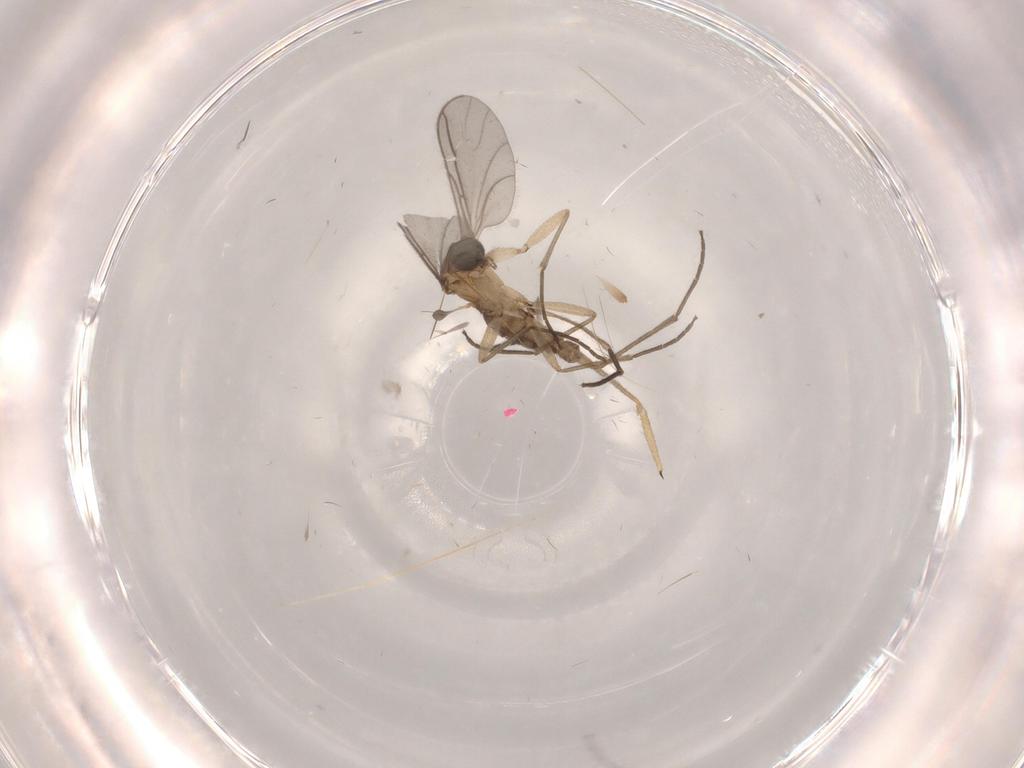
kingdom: Animalia
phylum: Arthropoda
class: Insecta
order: Diptera
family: Sciaridae
